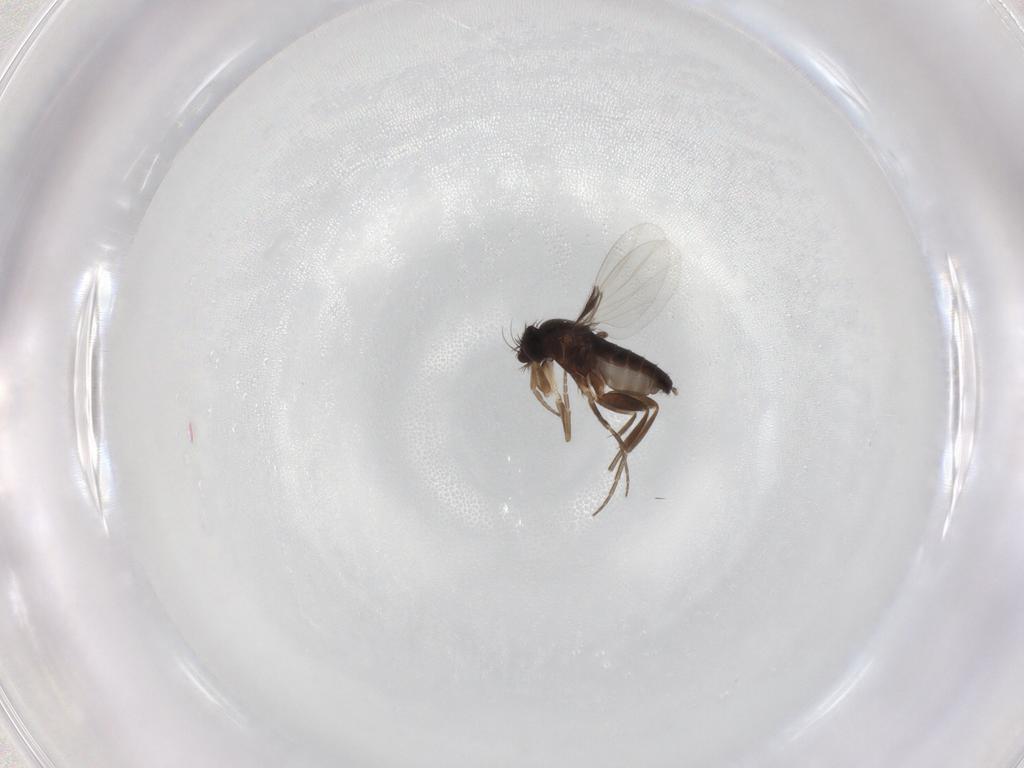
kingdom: Animalia
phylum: Arthropoda
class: Insecta
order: Diptera
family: Phoridae
